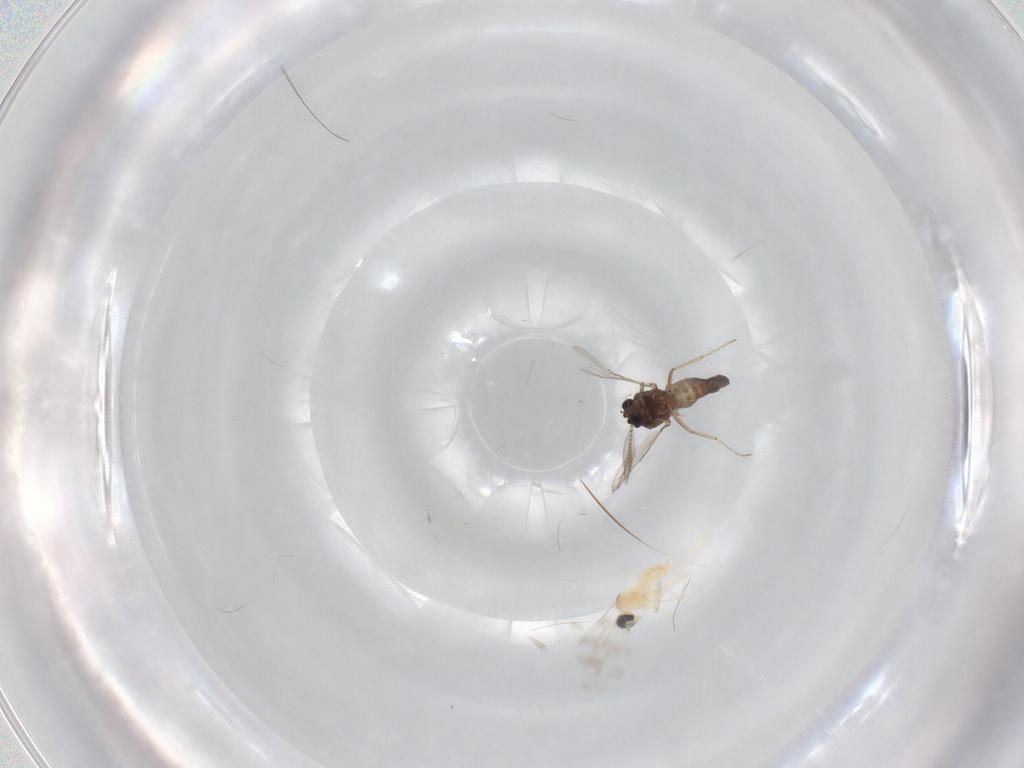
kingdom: Animalia
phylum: Arthropoda
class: Insecta
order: Diptera
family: Ceratopogonidae
